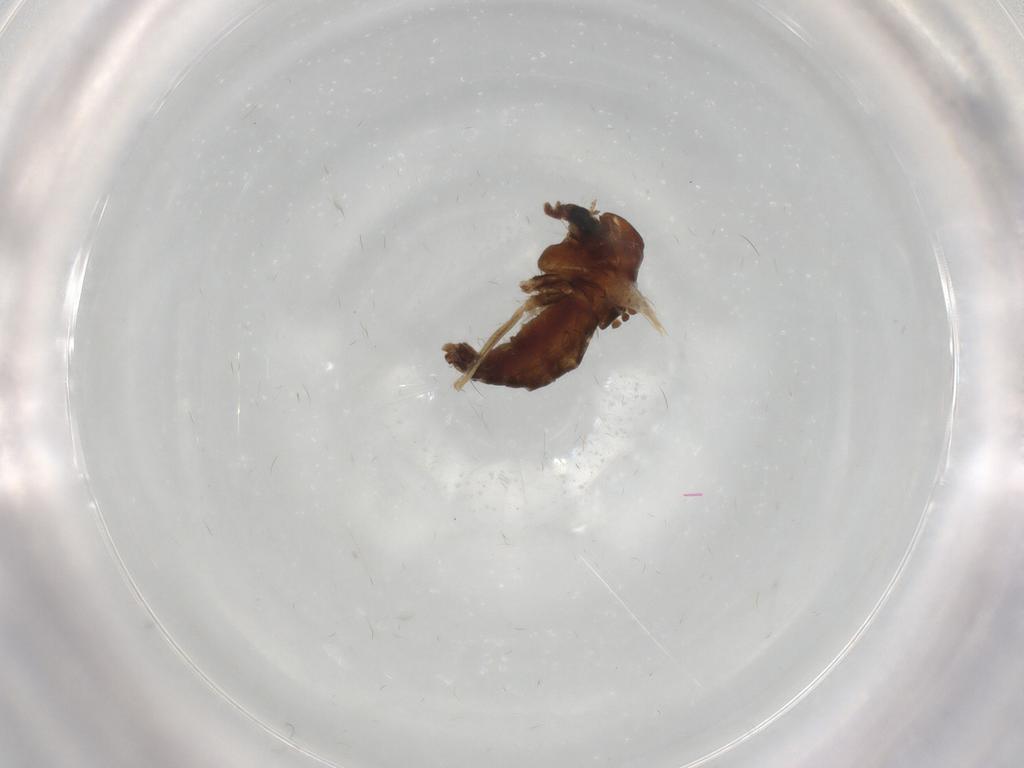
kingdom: Animalia
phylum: Arthropoda
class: Insecta
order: Diptera
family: Chironomidae
